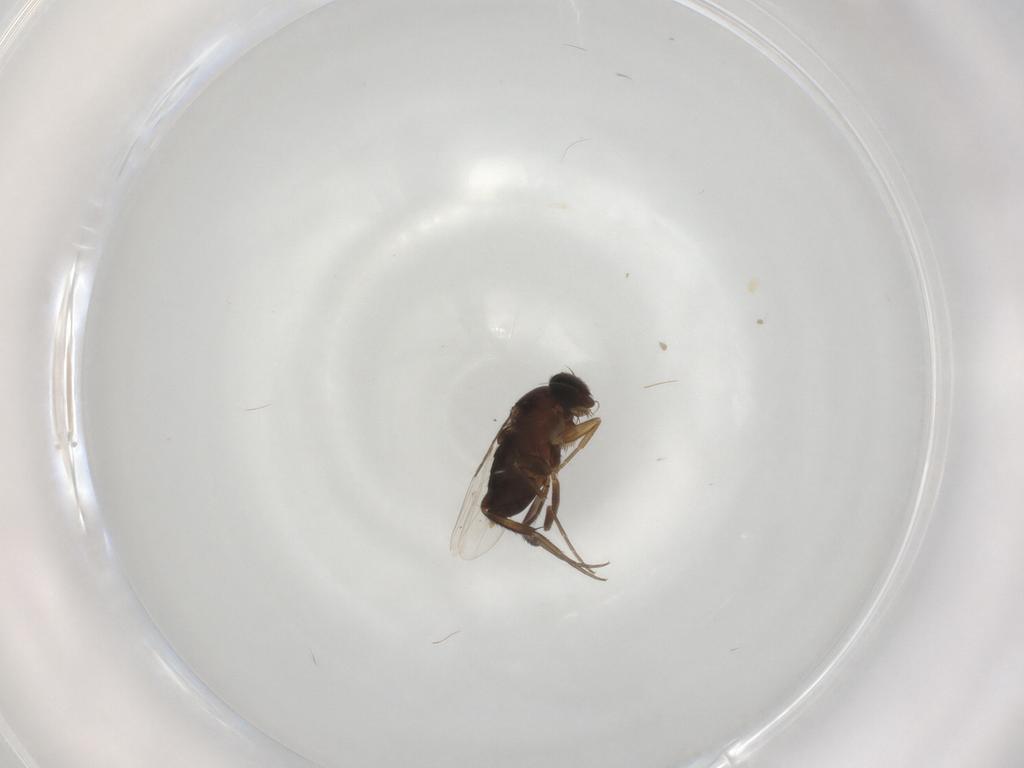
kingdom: Animalia
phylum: Arthropoda
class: Insecta
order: Diptera
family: Phoridae
